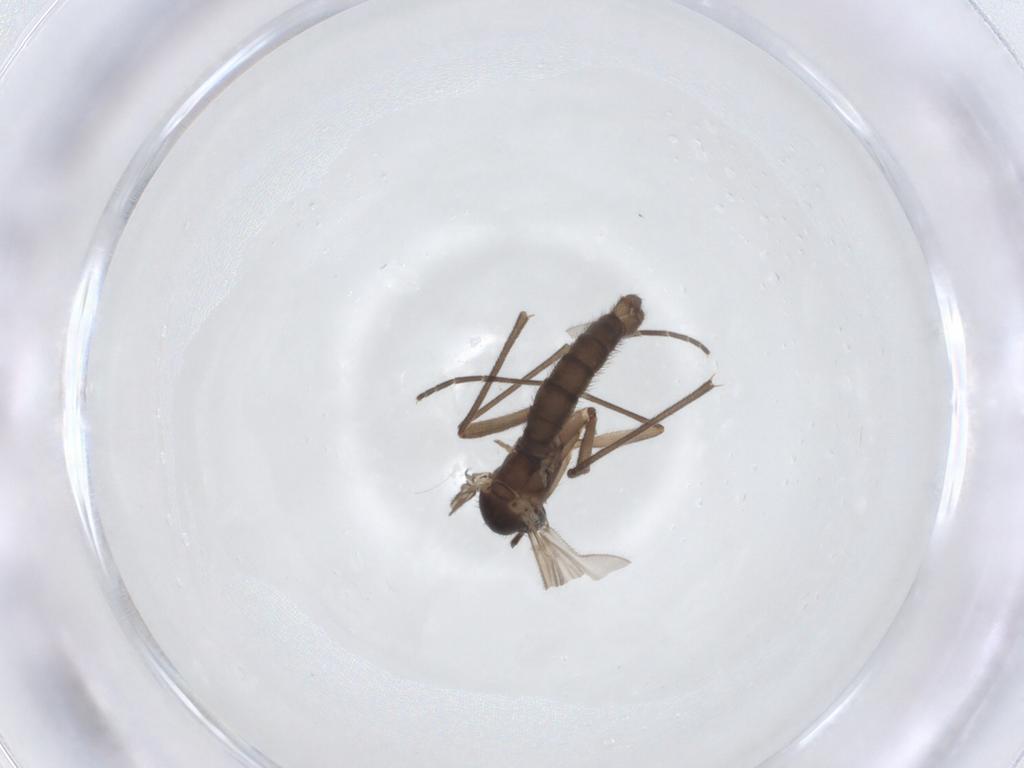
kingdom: Animalia
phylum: Arthropoda
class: Insecta
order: Diptera
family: Sciaridae
